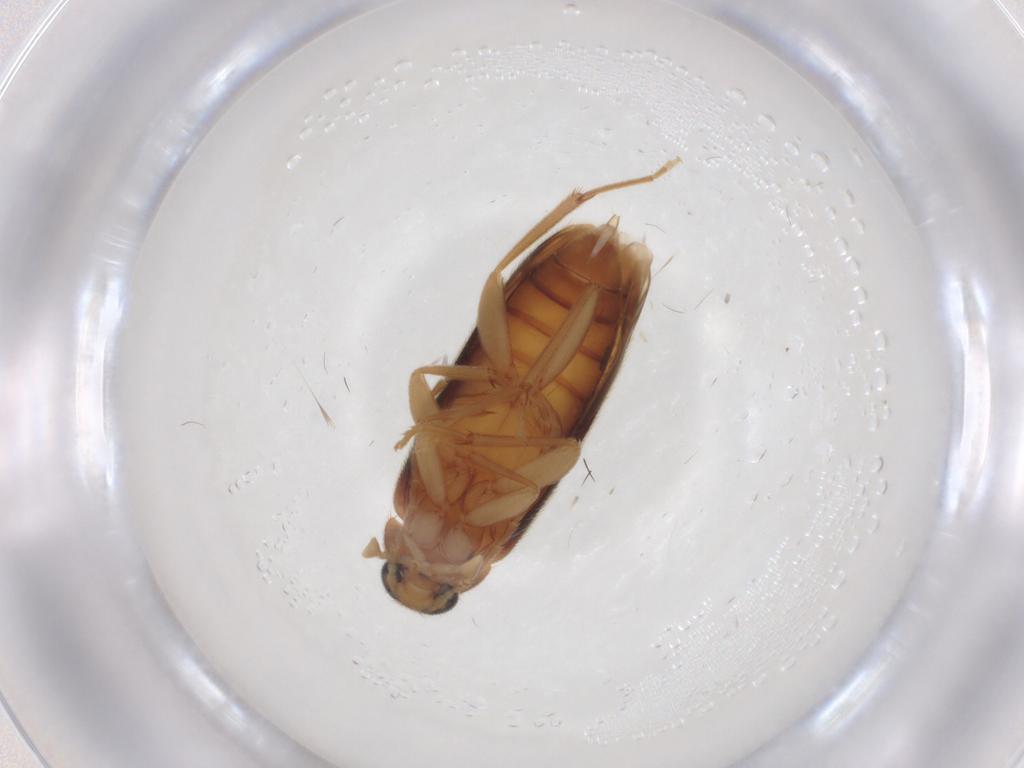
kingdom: Animalia
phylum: Arthropoda
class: Insecta
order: Coleoptera
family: Scraptiidae
